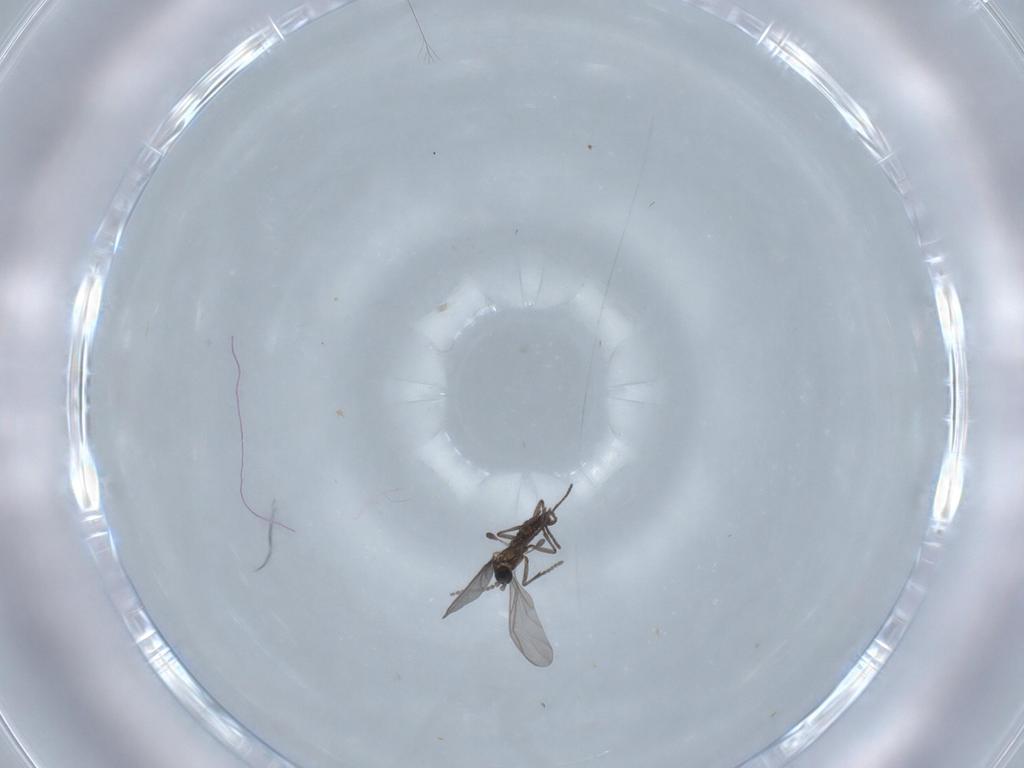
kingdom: Animalia
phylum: Arthropoda
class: Insecta
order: Diptera
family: Sciaridae
